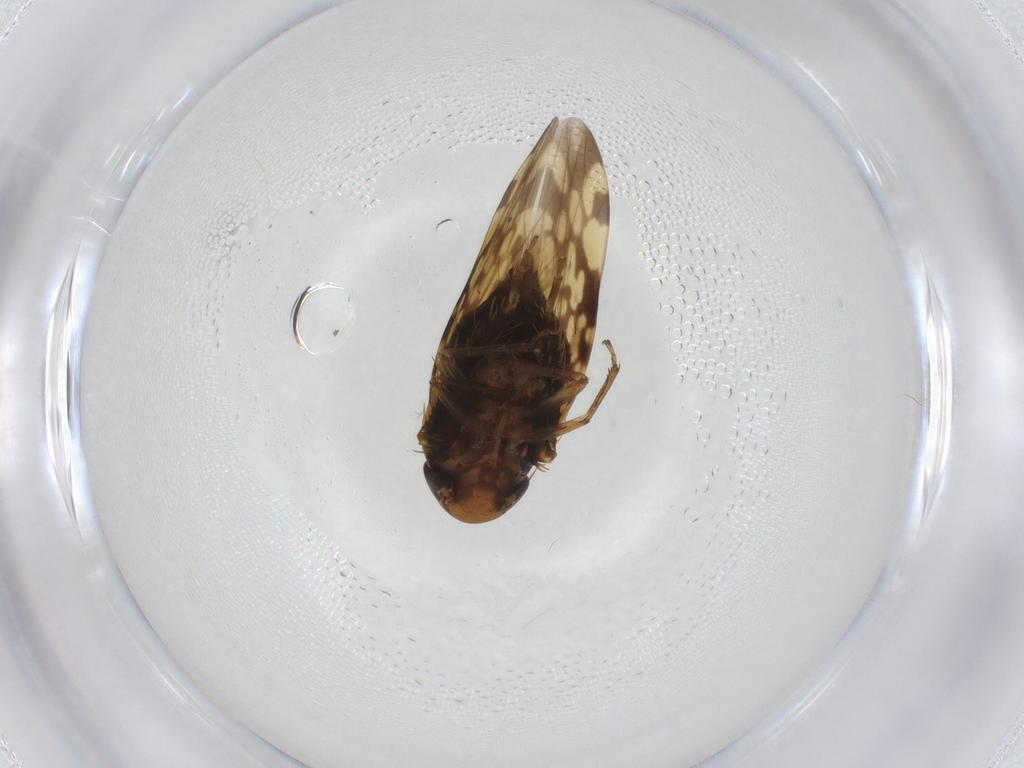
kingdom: Animalia
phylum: Arthropoda
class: Insecta
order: Hemiptera
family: Cicadellidae
